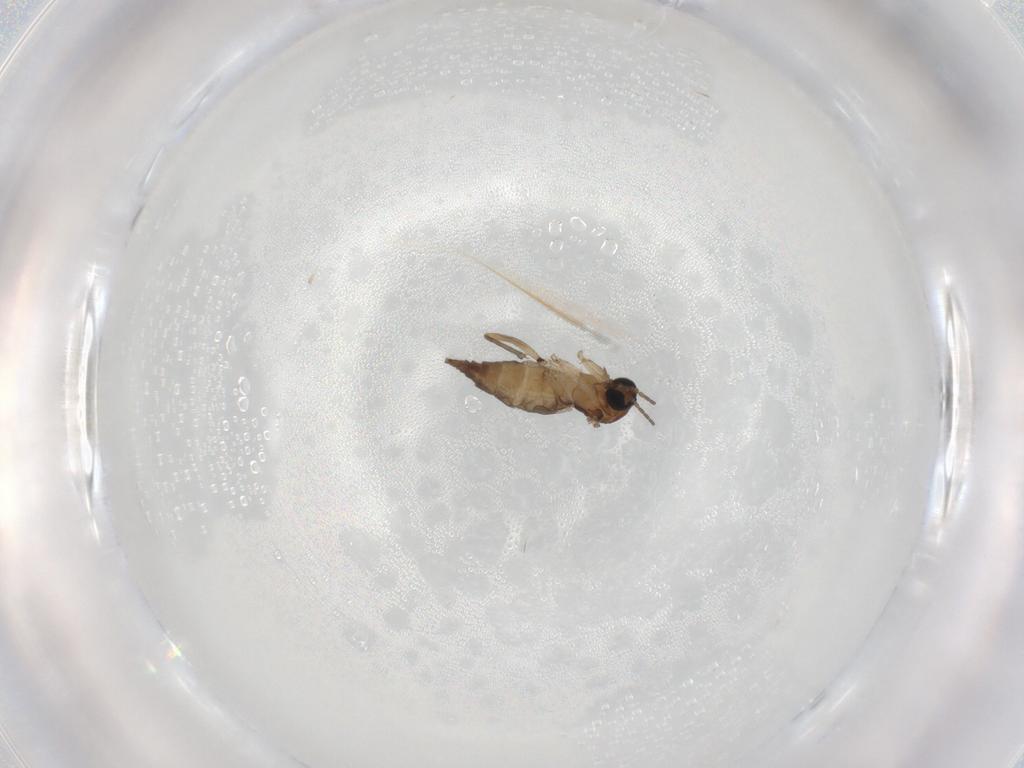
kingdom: Animalia
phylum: Arthropoda
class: Insecta
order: Diptera
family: Sciaridae
